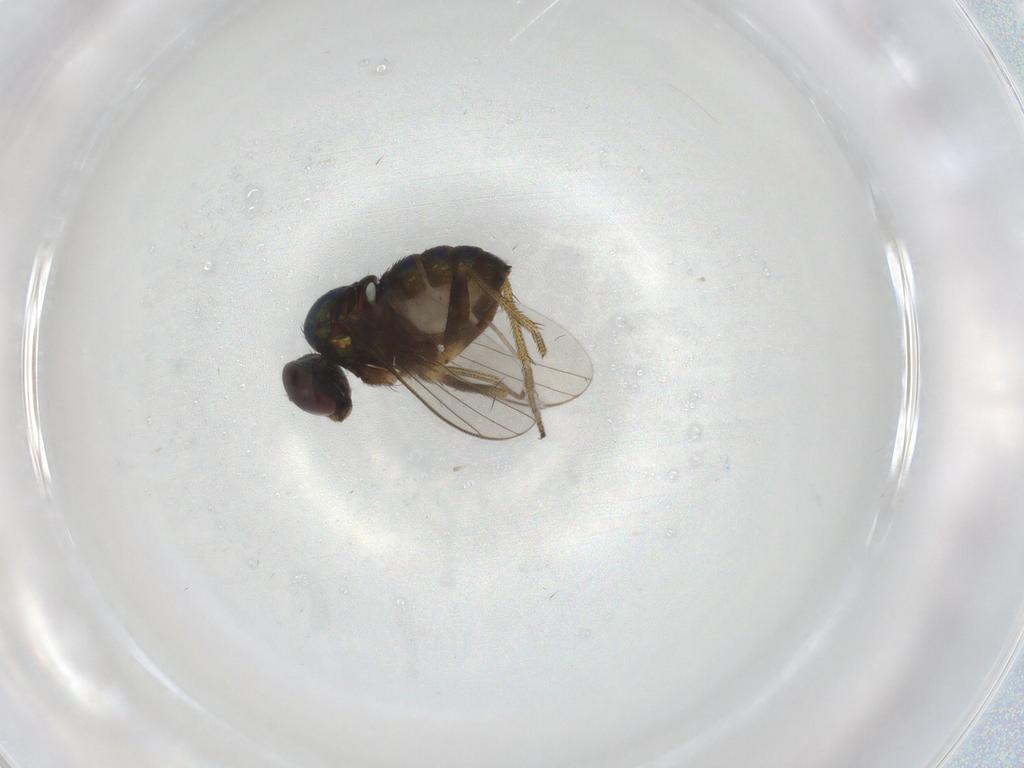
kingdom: Animalia
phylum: Arthropoda
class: Insecta
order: Diptera
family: Dolichopodidae
